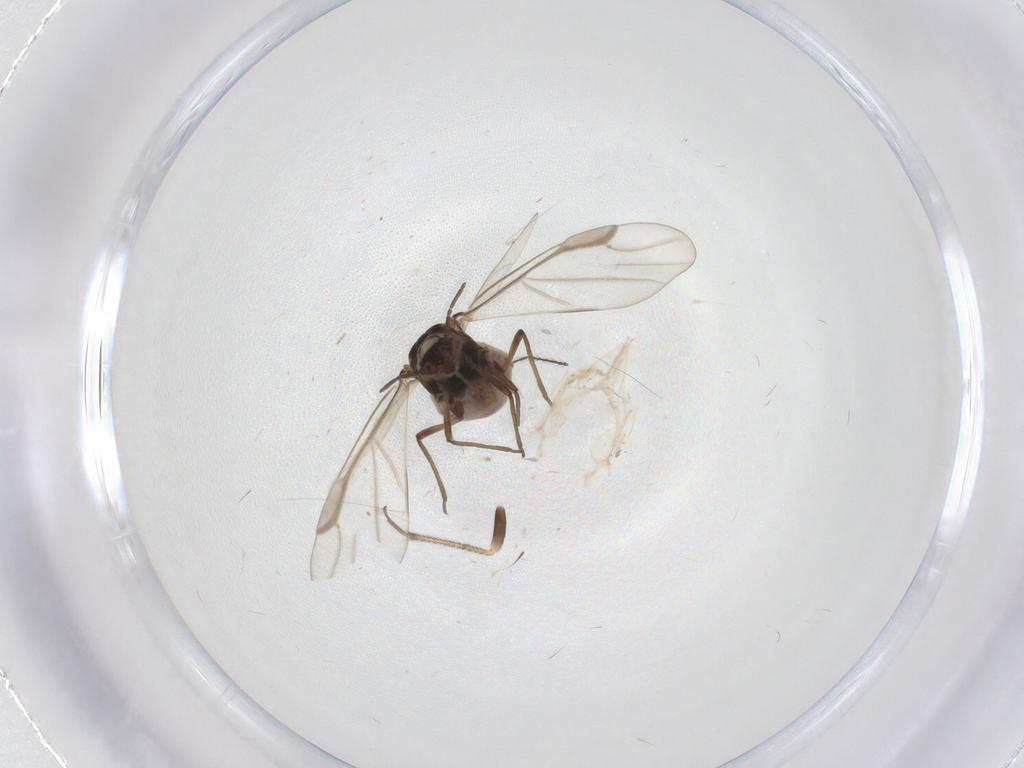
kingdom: Animalia
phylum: Arthropoda
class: Insecta
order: Hemiptera
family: Aphididae
